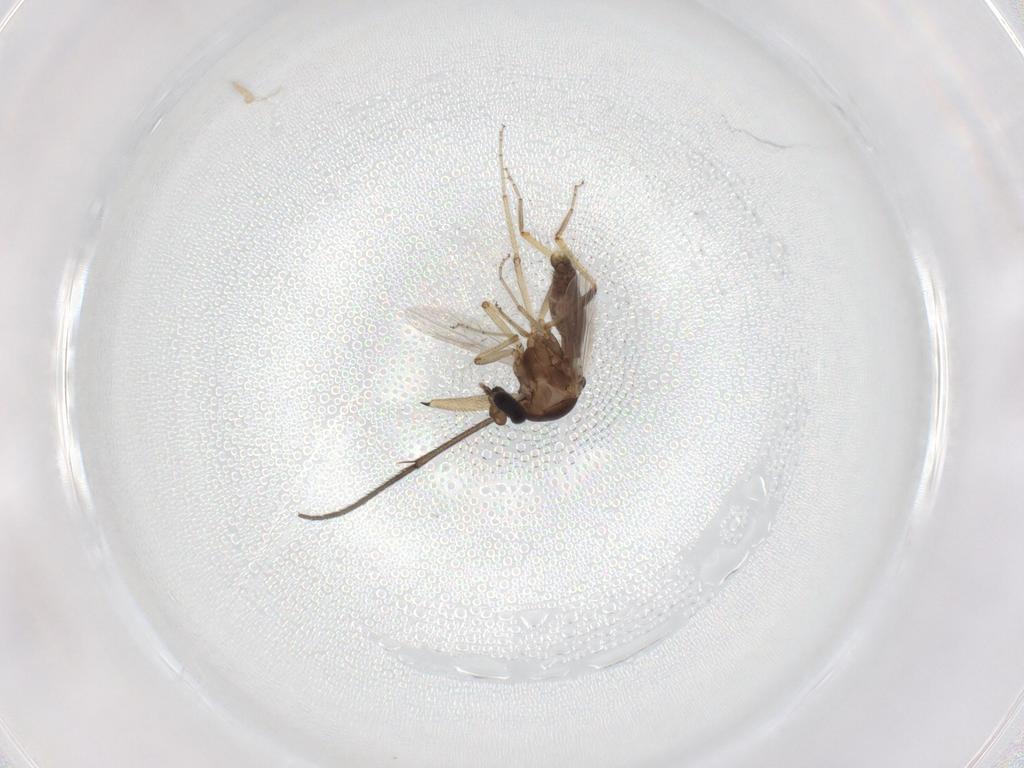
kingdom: Animalia
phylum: Arthropoda
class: Insecta
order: Diptera
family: Ceratopogonidae
